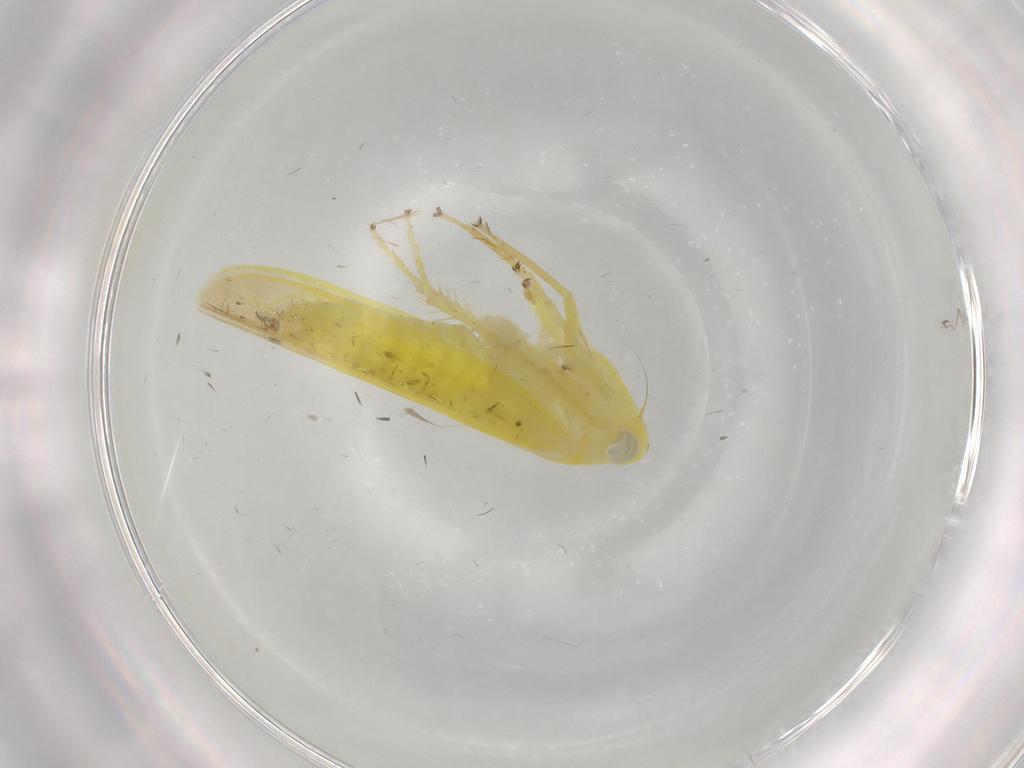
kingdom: Animalia
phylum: Arthropoda
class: Insecta
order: Hemiptera
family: Cicadellidae
